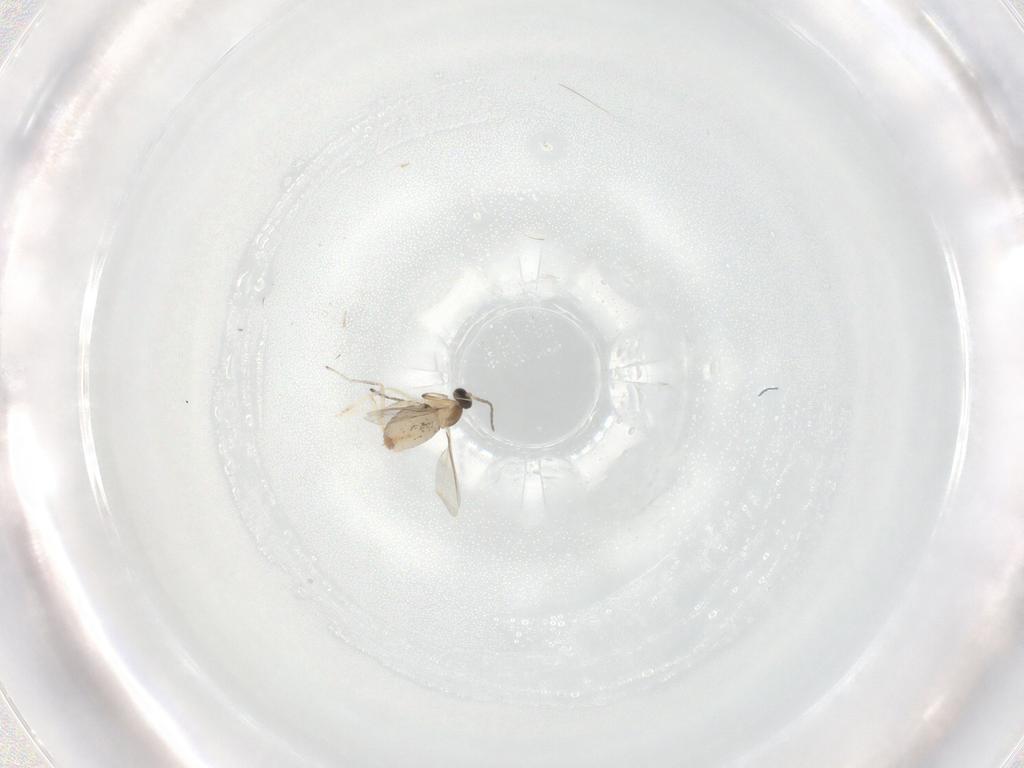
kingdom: Animalia
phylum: Arthropoda
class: Insecta
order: Diptera
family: Cecidomyiidae
